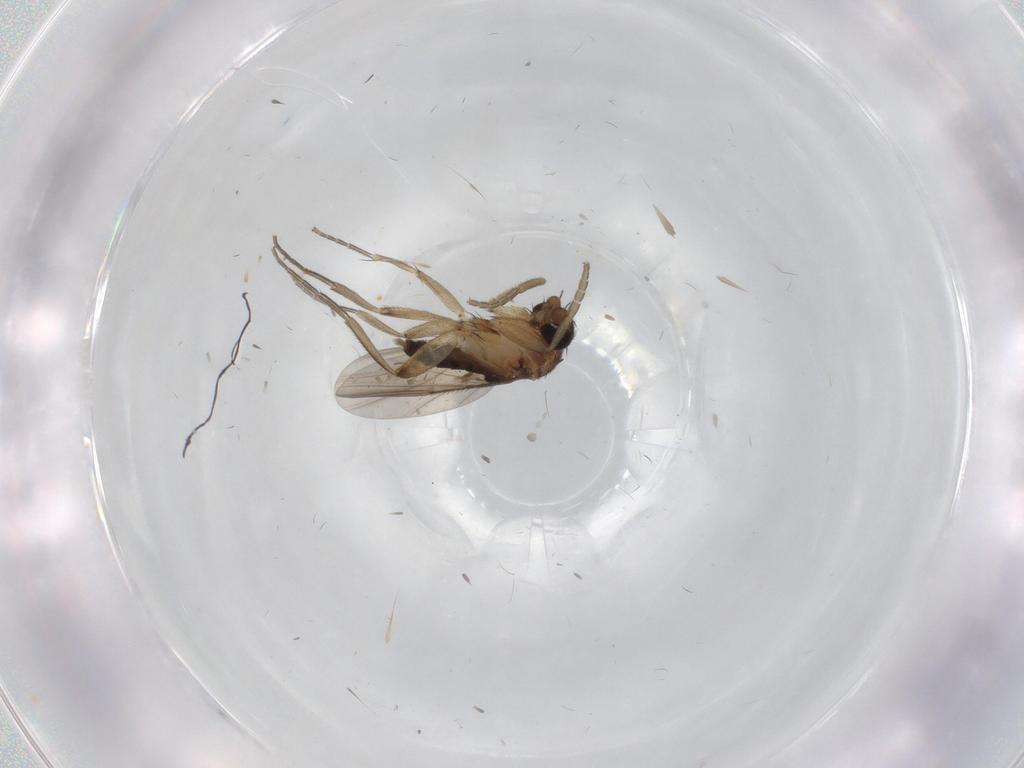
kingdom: Animalia
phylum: Arthropoda
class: Insecta
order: Diptera
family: Phoridae
